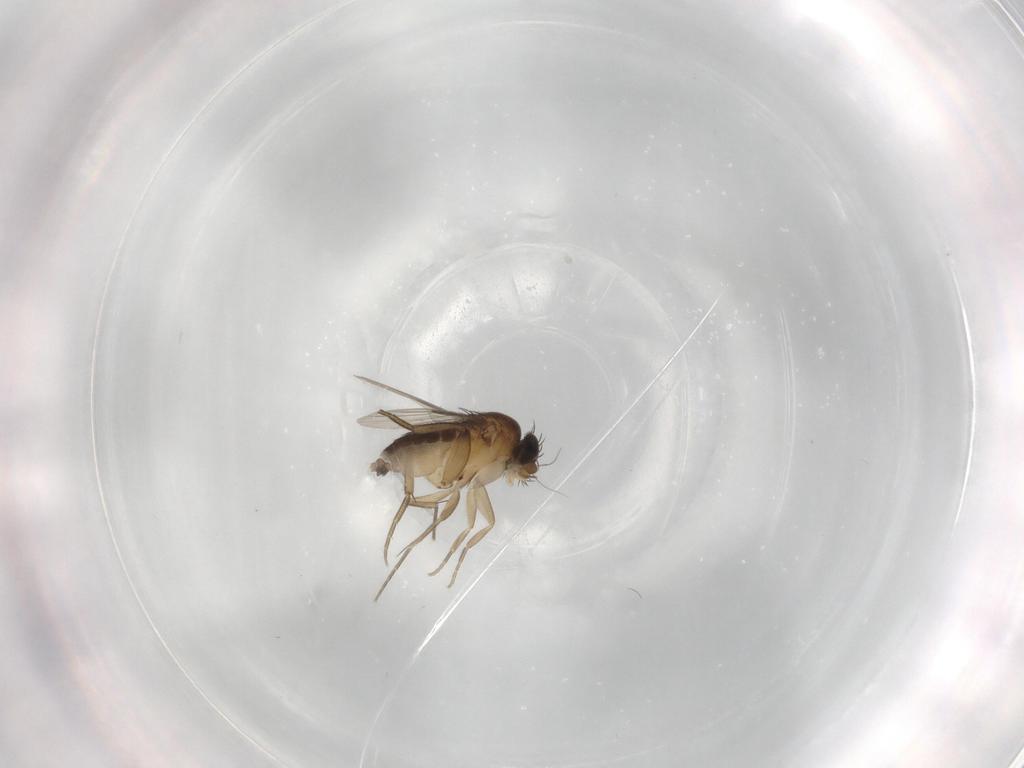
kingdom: Animalia
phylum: Arthropoda
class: Insecta
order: Diptera
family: Phoridae
